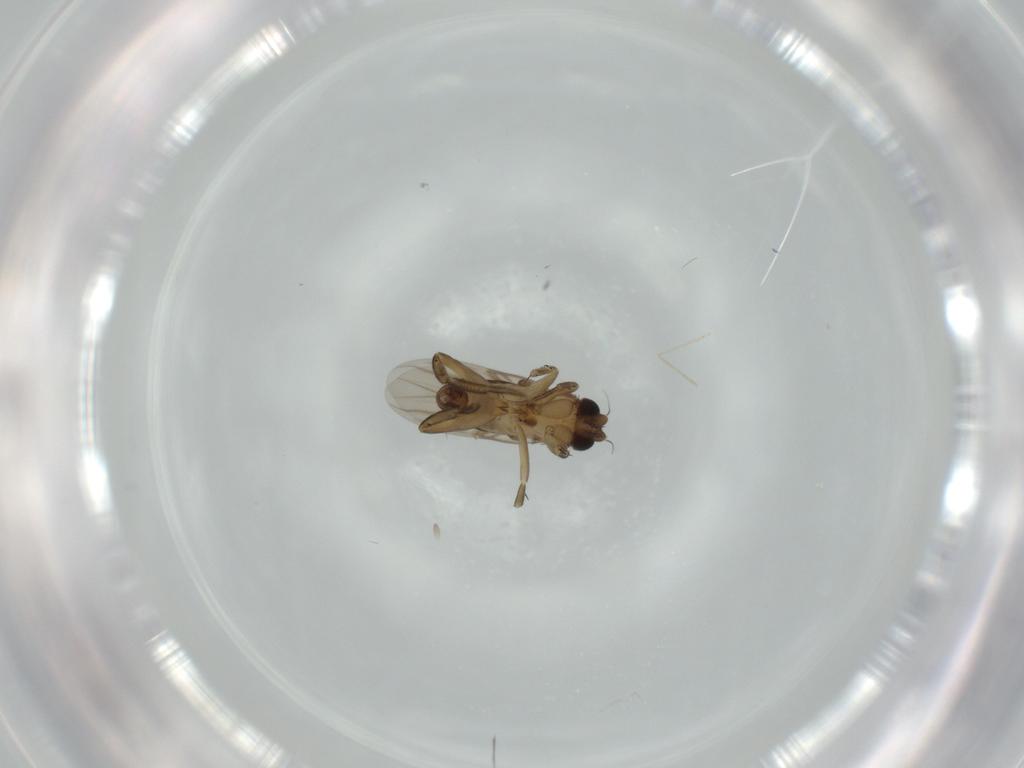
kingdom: Animalia
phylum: Arthropoda
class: Insecta
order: Diptera
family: Phoridae
